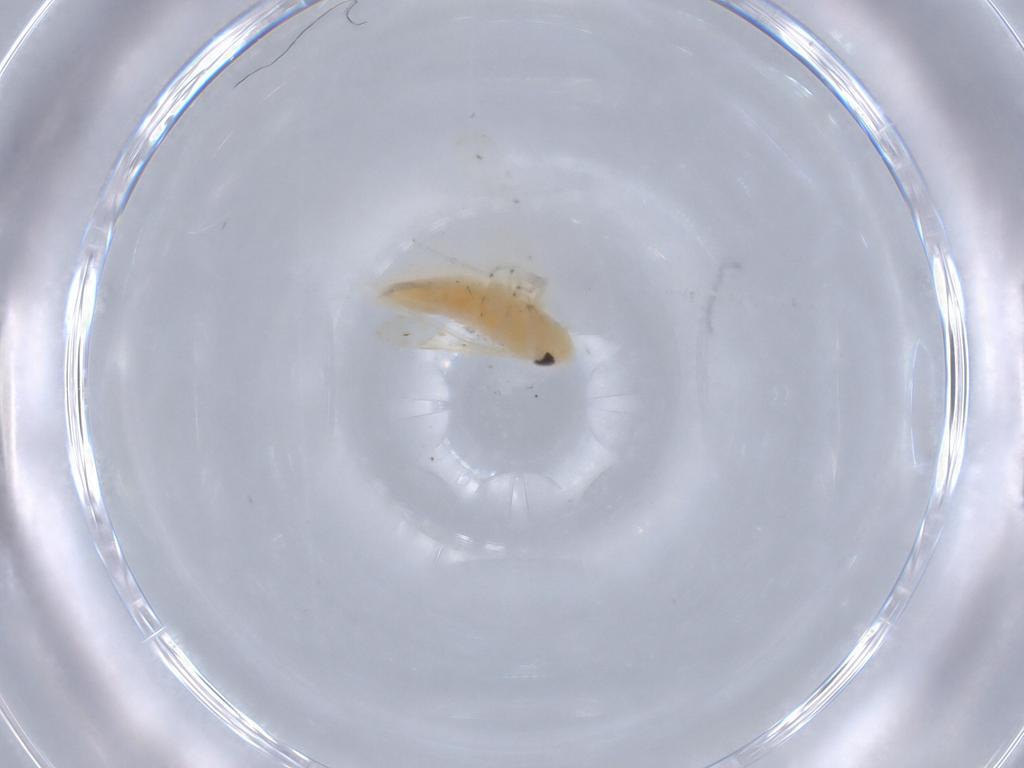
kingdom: Animalia
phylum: Arthropoda
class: Insecta
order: Hemiptera
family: Cicadellidae
